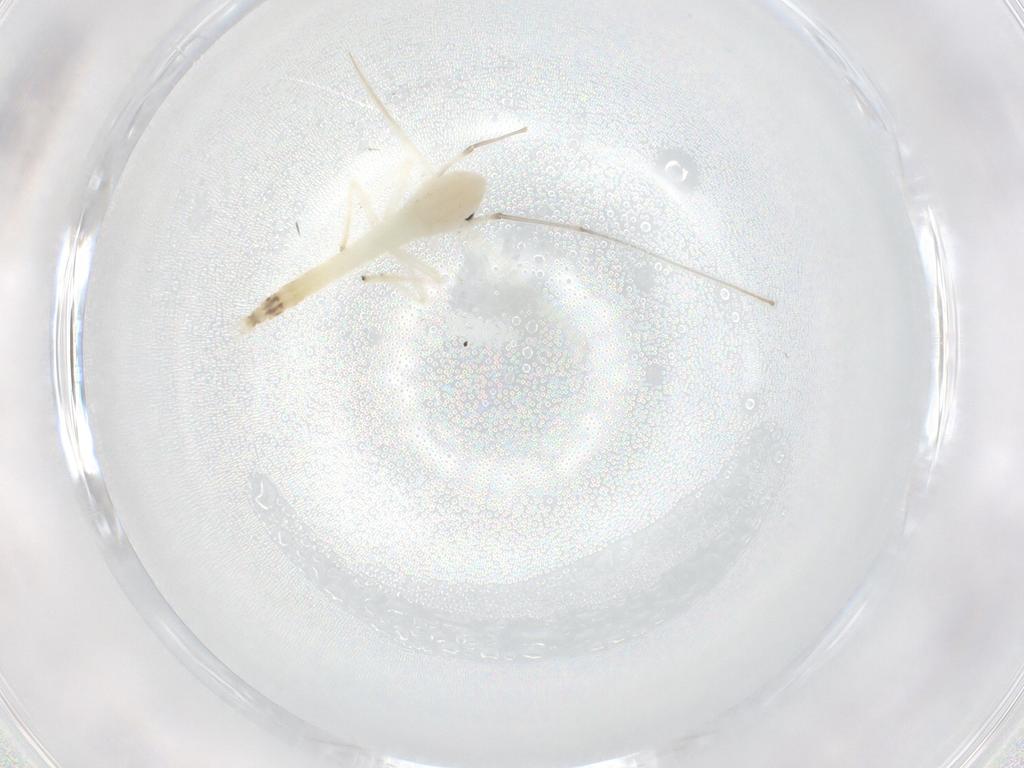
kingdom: Animalia
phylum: Arthropoda
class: Insecta
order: Diptera
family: Chironomidae
